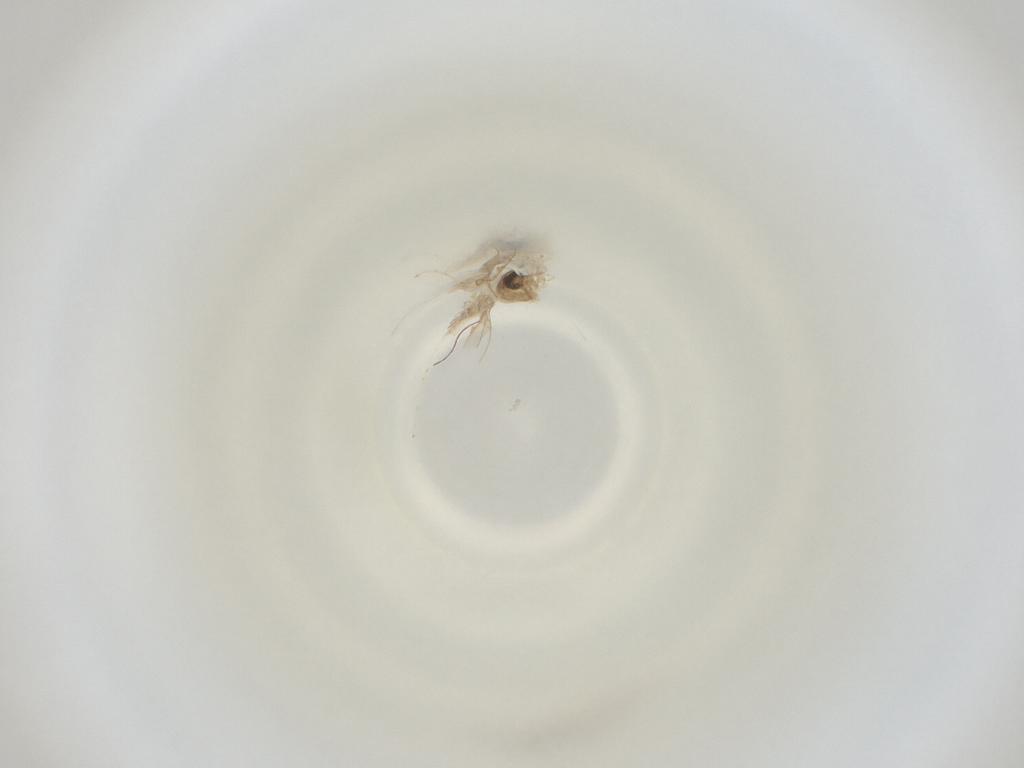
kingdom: Animalia
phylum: Arthropoda
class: Insecta
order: Diptera
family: Cecidomyiidae
